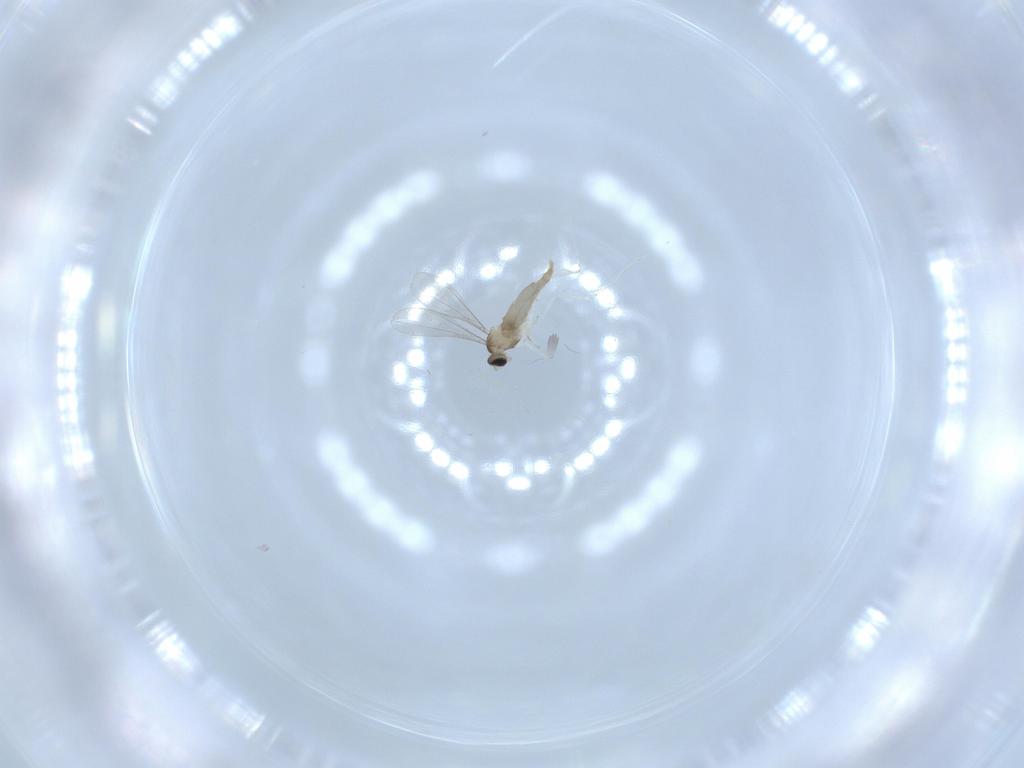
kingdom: Animalia
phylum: Arthropoda
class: Insecta
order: Diptera
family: Phoridae
